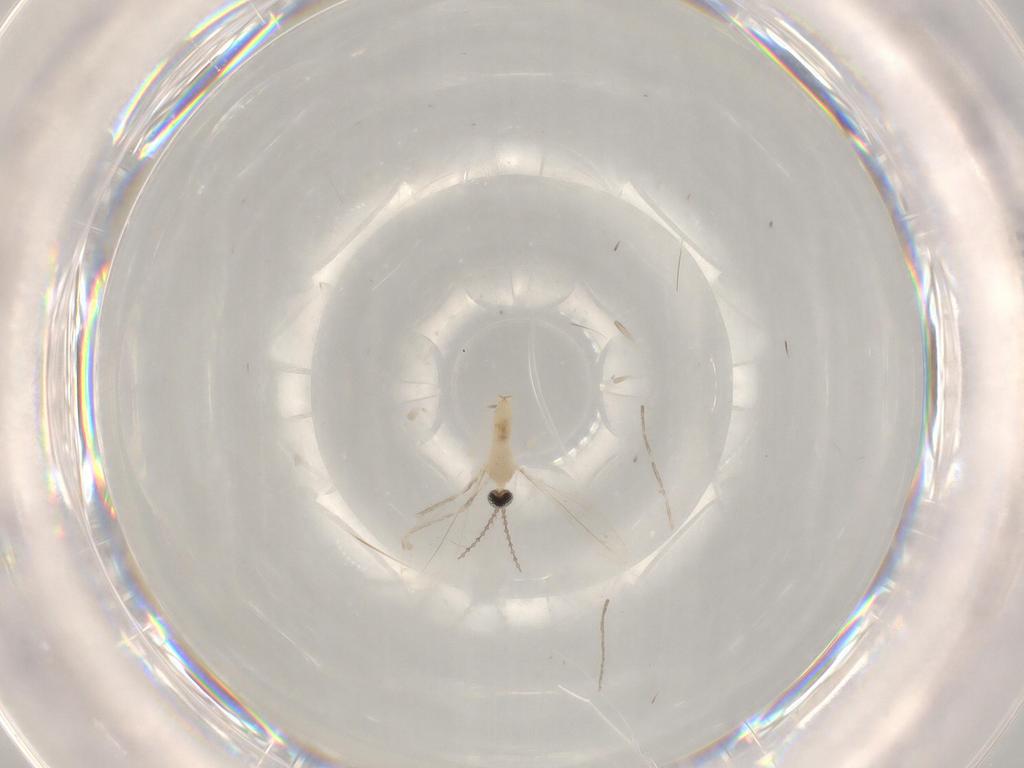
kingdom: Animalia
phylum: Arthropoda
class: Insecta
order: Diptera
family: Cecidomyiidae
